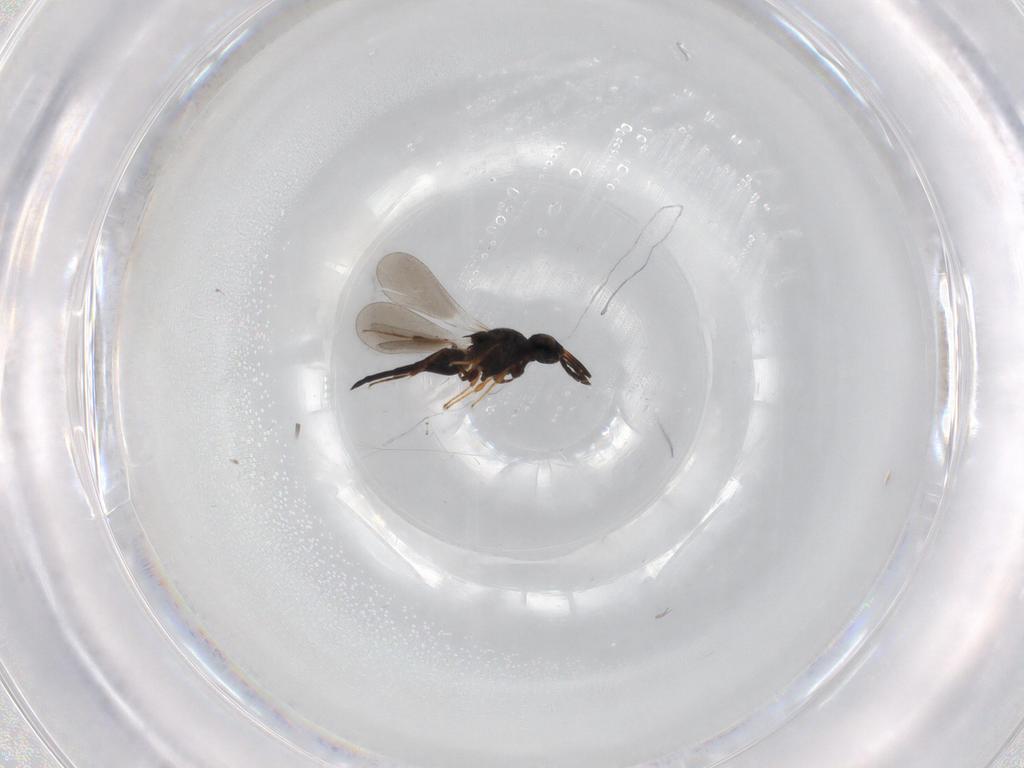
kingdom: Animalia
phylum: Arthropoda
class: Insecta
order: Hymenoptera
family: Platygastridae
